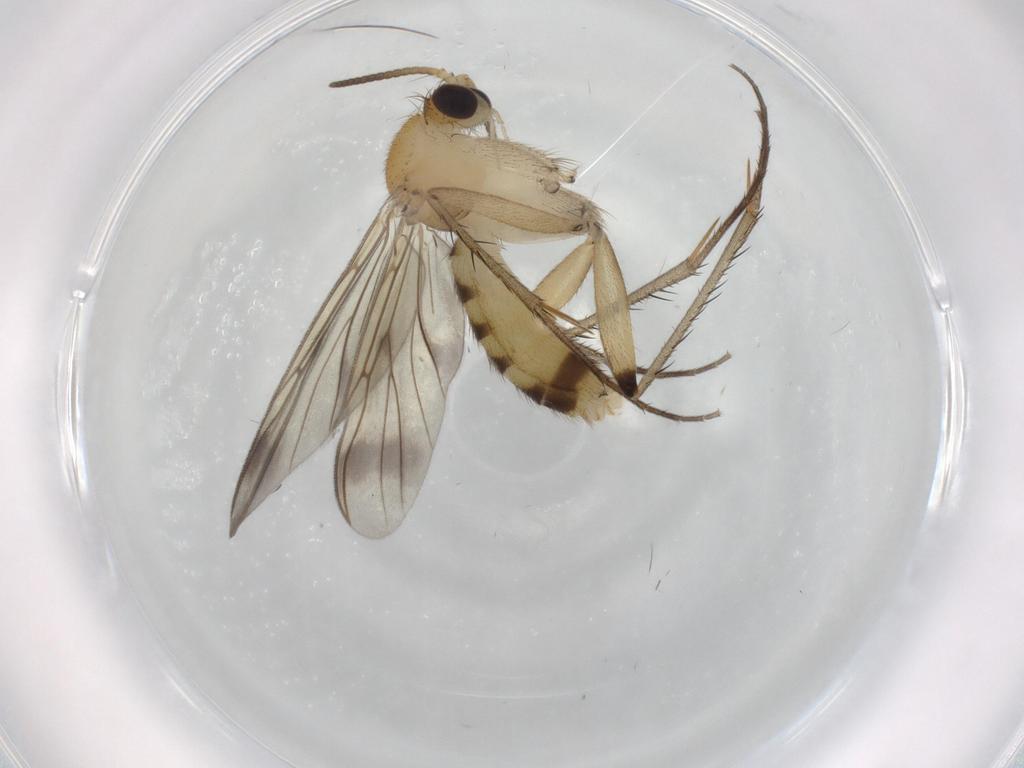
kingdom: Animalia
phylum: Arthropoda
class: Insecta
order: Diptera
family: Mycetophilidae
